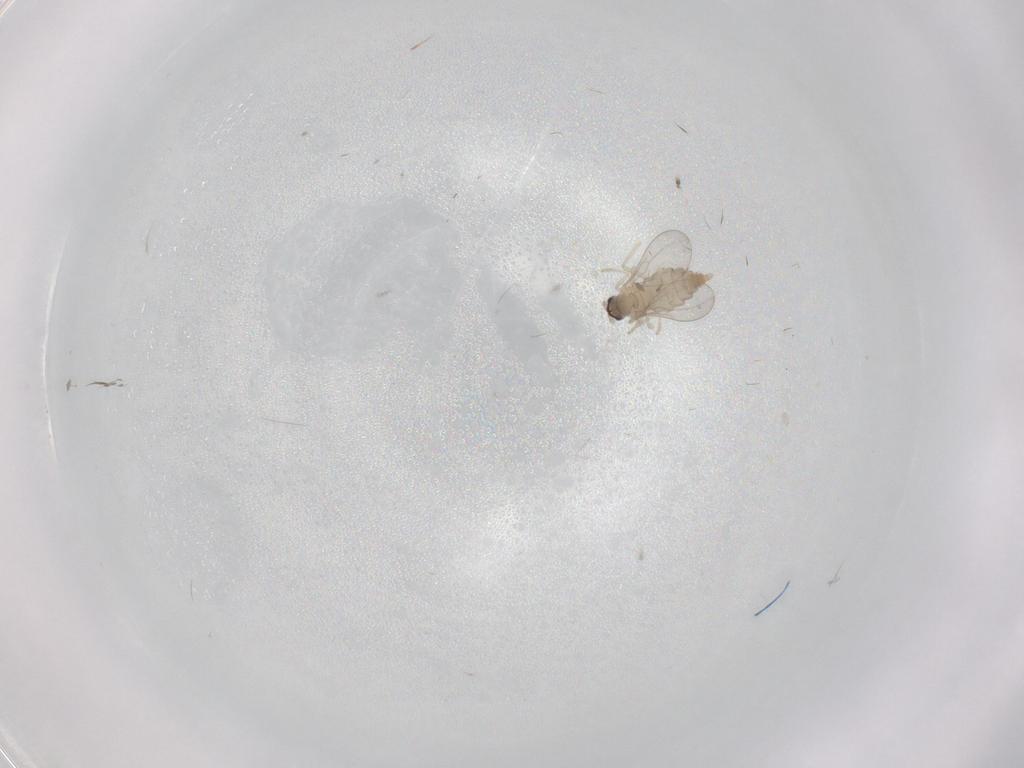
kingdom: Animalia
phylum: Arthropoda
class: Insecta
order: Diptera
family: Cecidomyiidae
